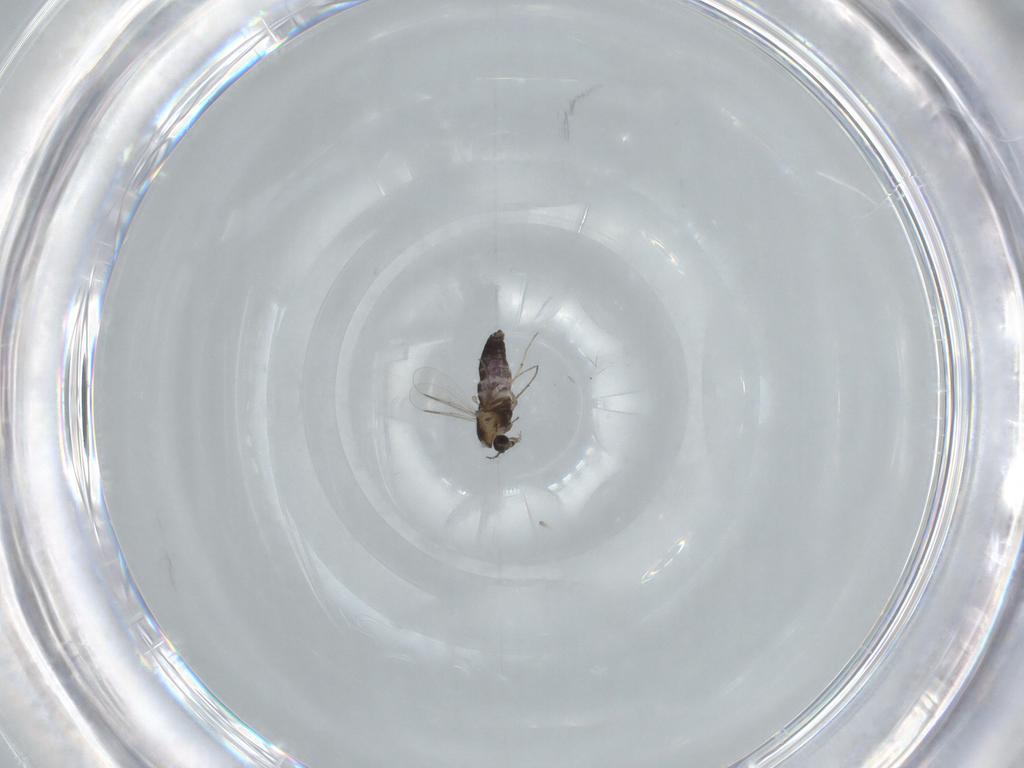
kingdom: Animalia
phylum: Arthropoda
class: Insecta
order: Diptera
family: Chironomidae
